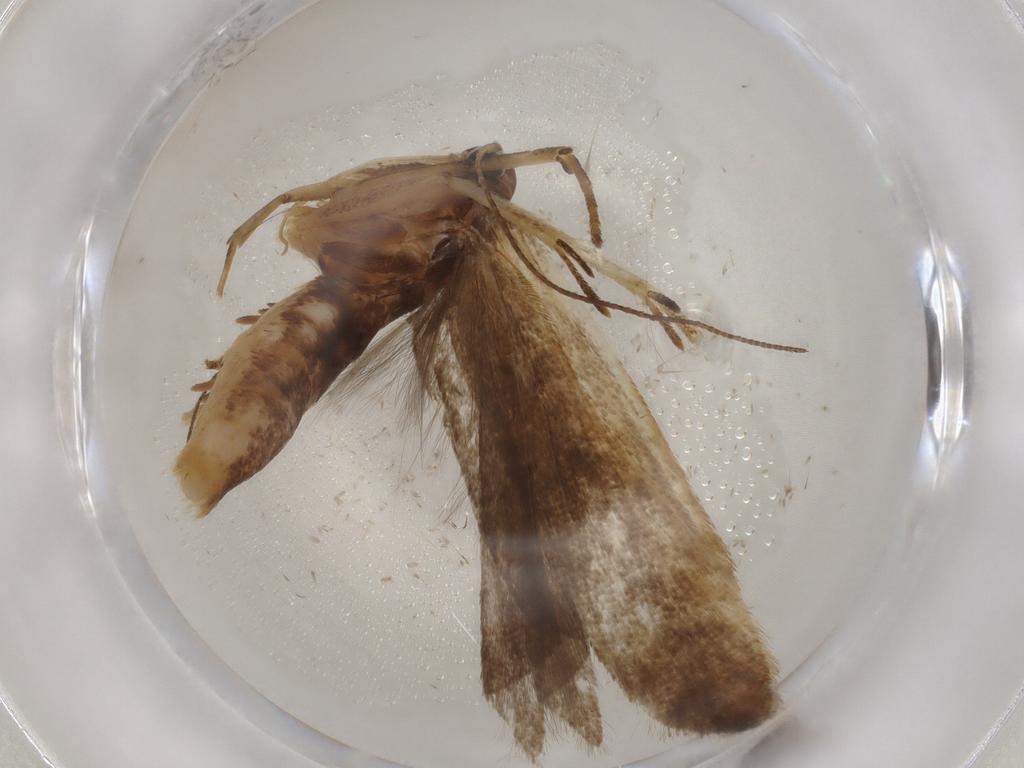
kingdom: Animalia
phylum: Arthropoda
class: Insecta
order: Lepidoptera
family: Gelechiidae
